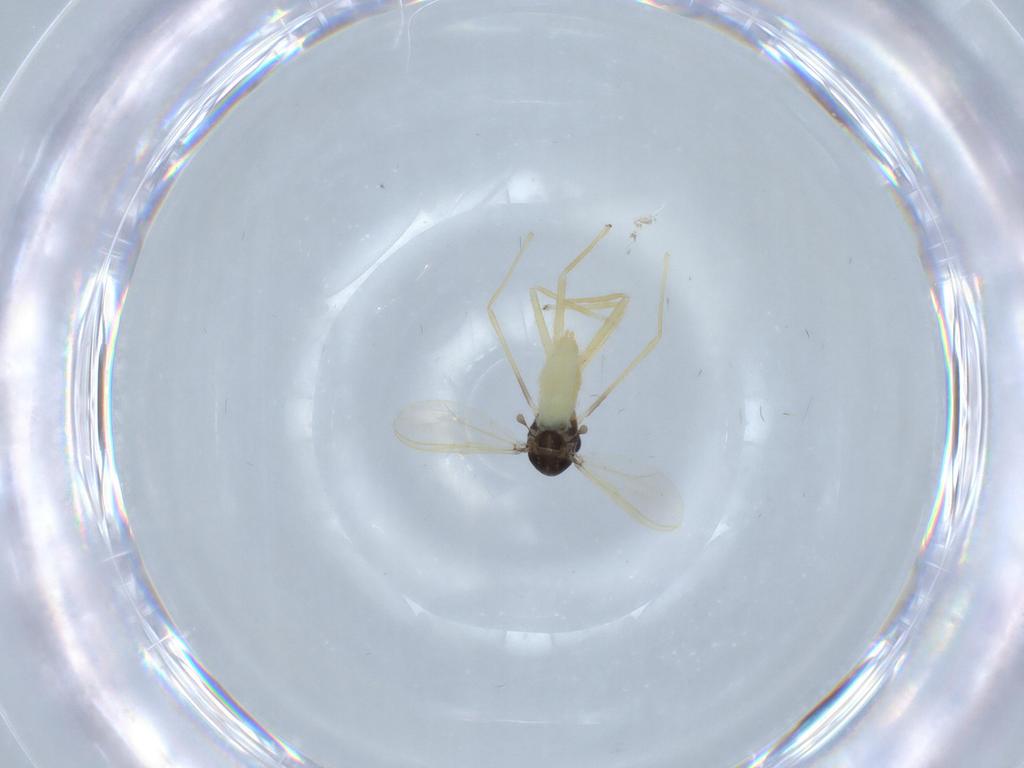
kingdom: Animalia
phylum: Arthropoda
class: Insecta
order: Diptera
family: Chironomidae
